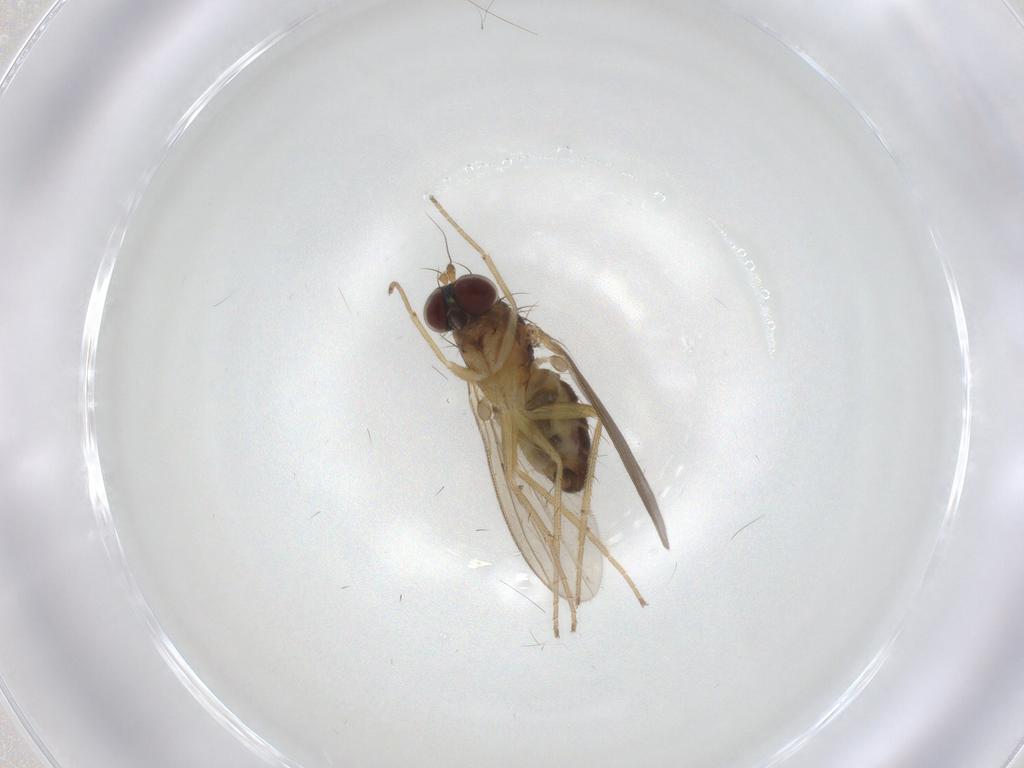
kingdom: Animalia
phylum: Arthropoda
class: Insecta
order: Diptera
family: Dolichopodidae
